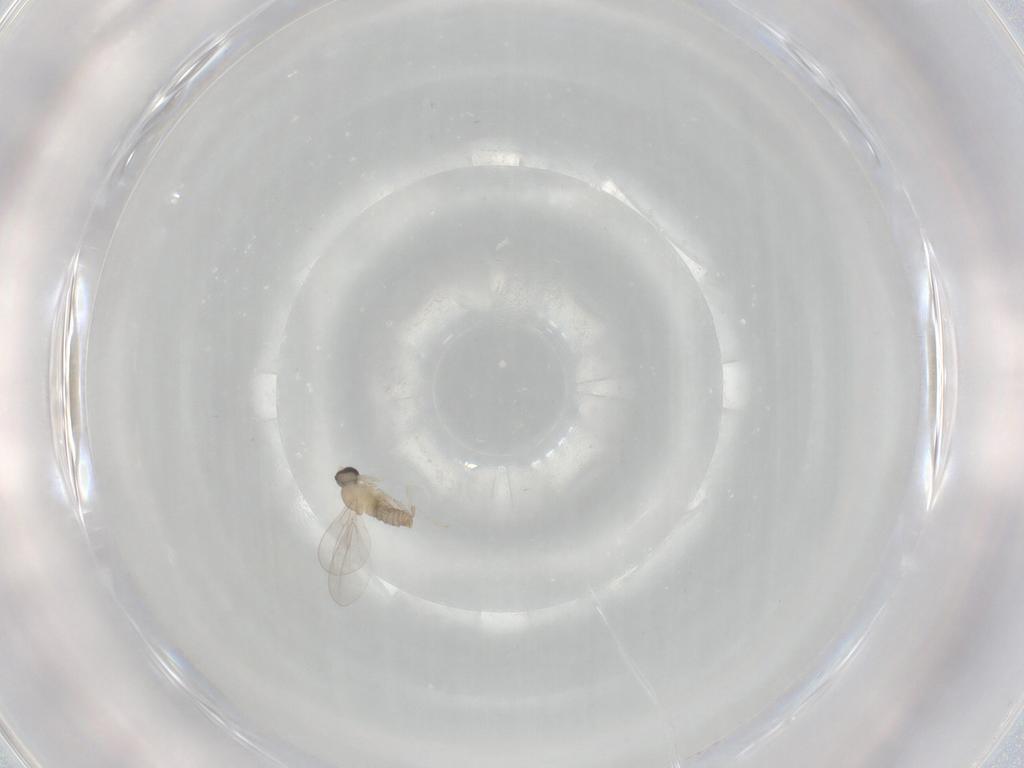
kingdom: Animalia
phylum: Arthropoda
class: Insecta
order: Diptera
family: Cecidomyiidae
